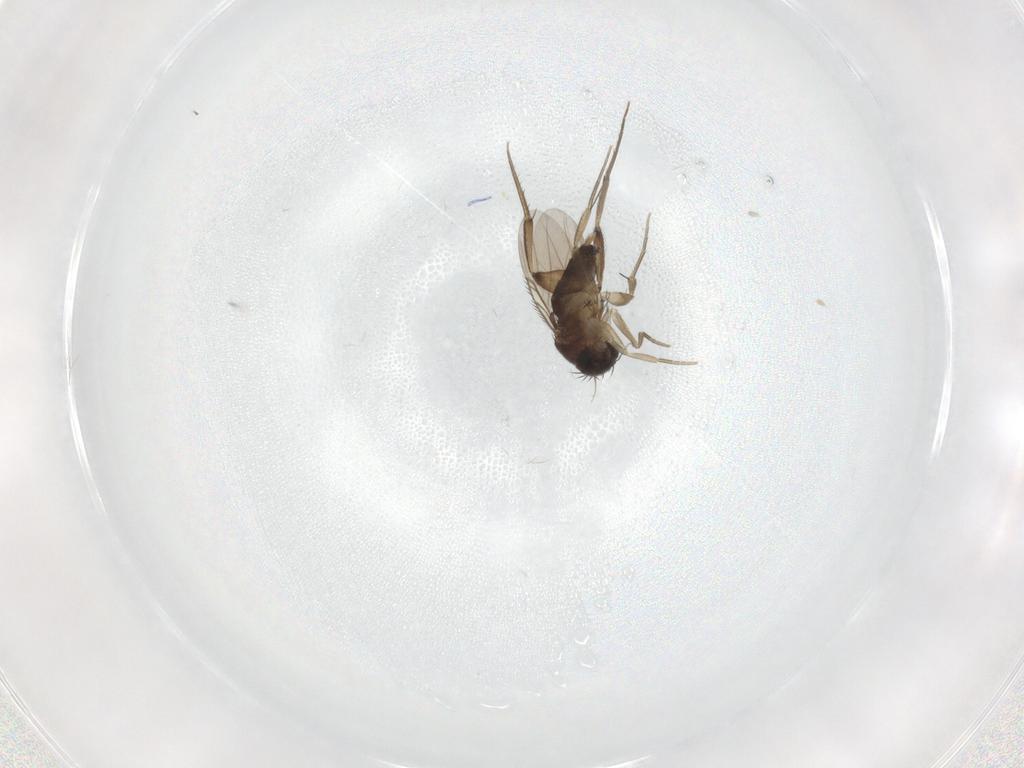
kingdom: Animalia
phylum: Arthropoda
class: Insecta
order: Diptera
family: Phoridae
